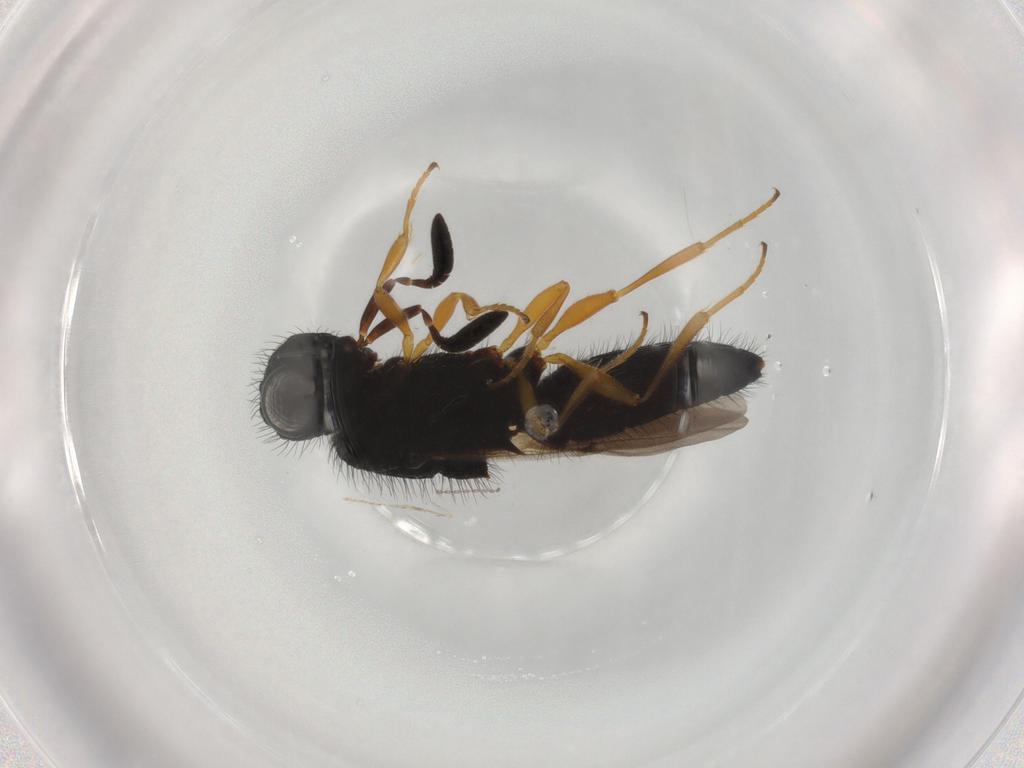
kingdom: Animalia
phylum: Arthropoda
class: Insecta
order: Hymenoptera
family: Scelionidae
